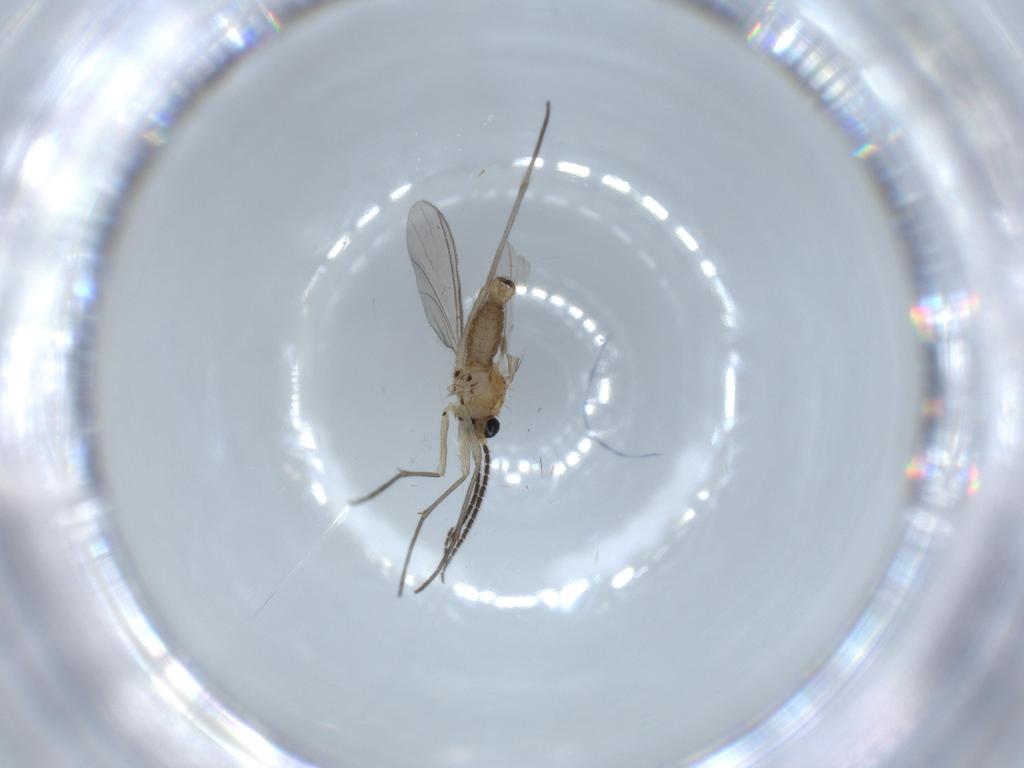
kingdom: Animalia
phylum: Arthropoda
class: Insecta
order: Diptera
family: Sciaridae
